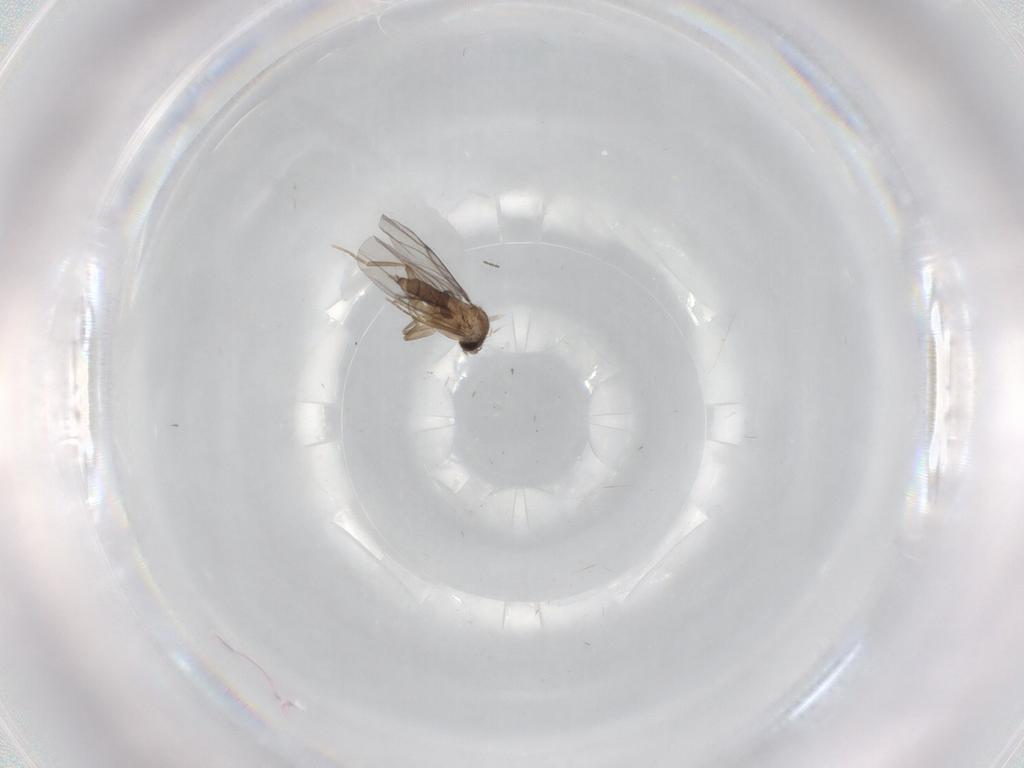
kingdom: Animalia
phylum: Arthropoda
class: Insecta
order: Diptera
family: Cecidomyiidae
